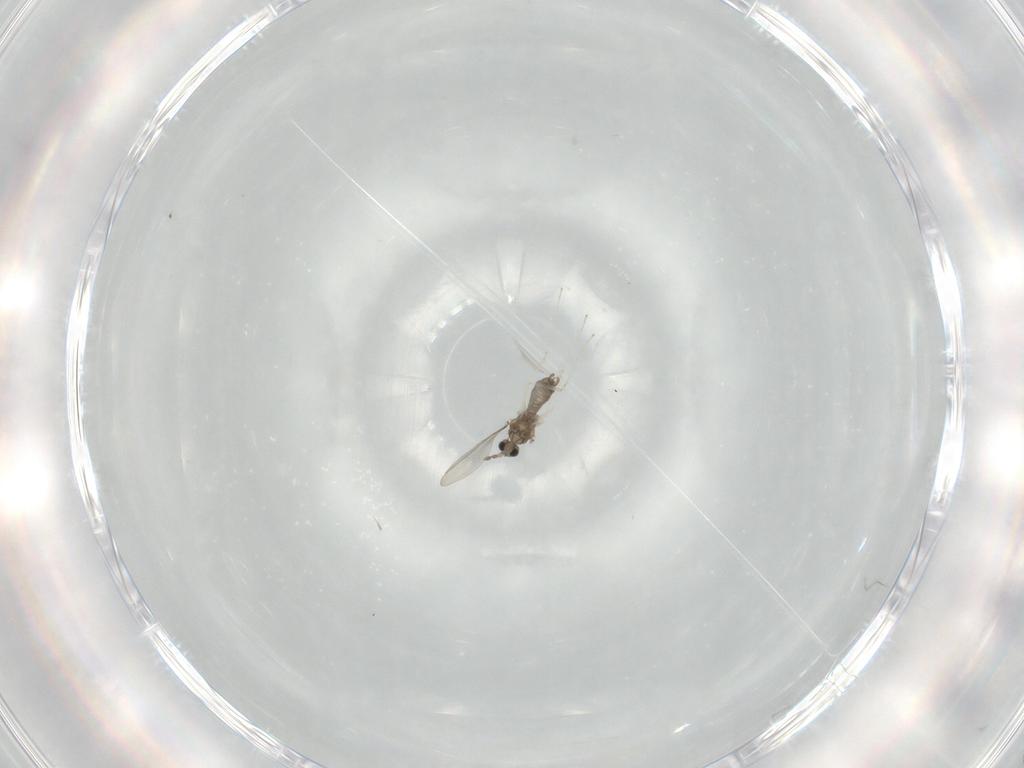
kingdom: Animalia
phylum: Arthropoda
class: Insecta
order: Diptera
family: Cecidomyiidae
